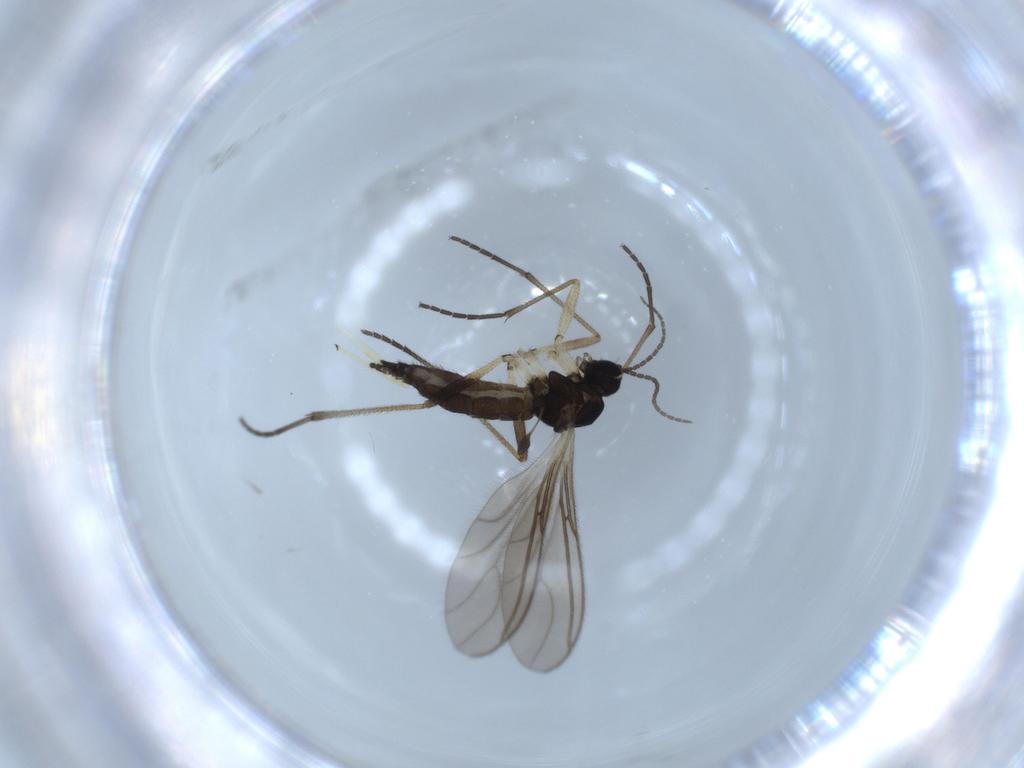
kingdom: Animalia
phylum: Arthropoda
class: Insecta
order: Diptera
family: Sciaridae
